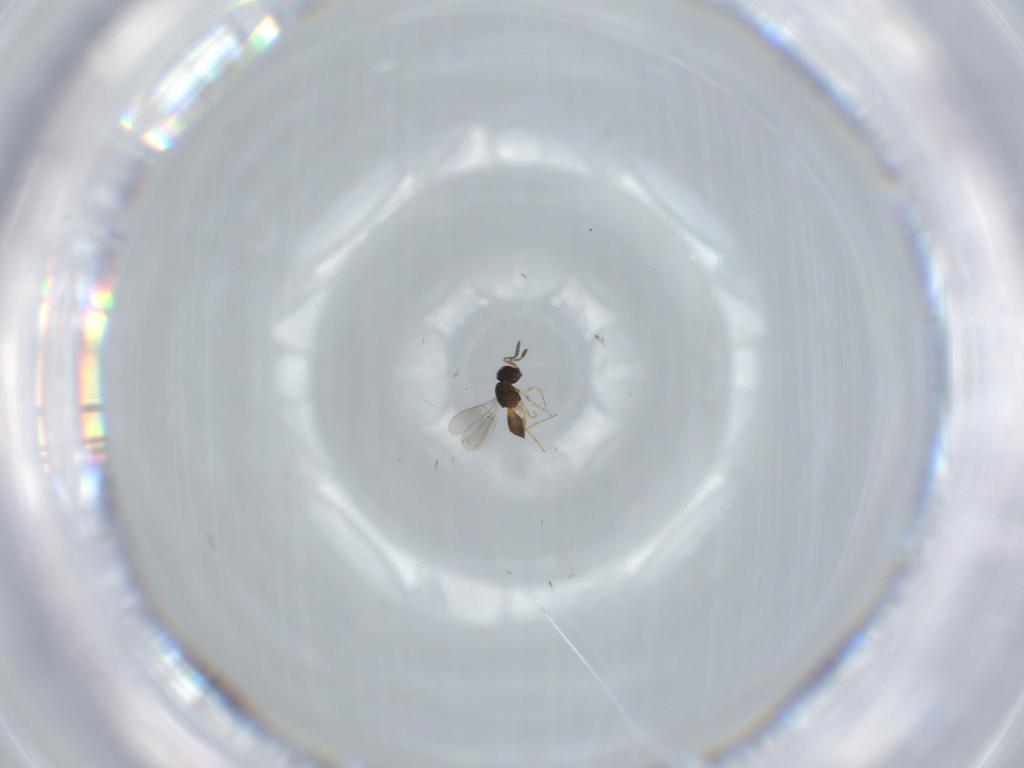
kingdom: Animalia
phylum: Arthropoda
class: Insecta
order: Hymenoptera
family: Scelionidae
